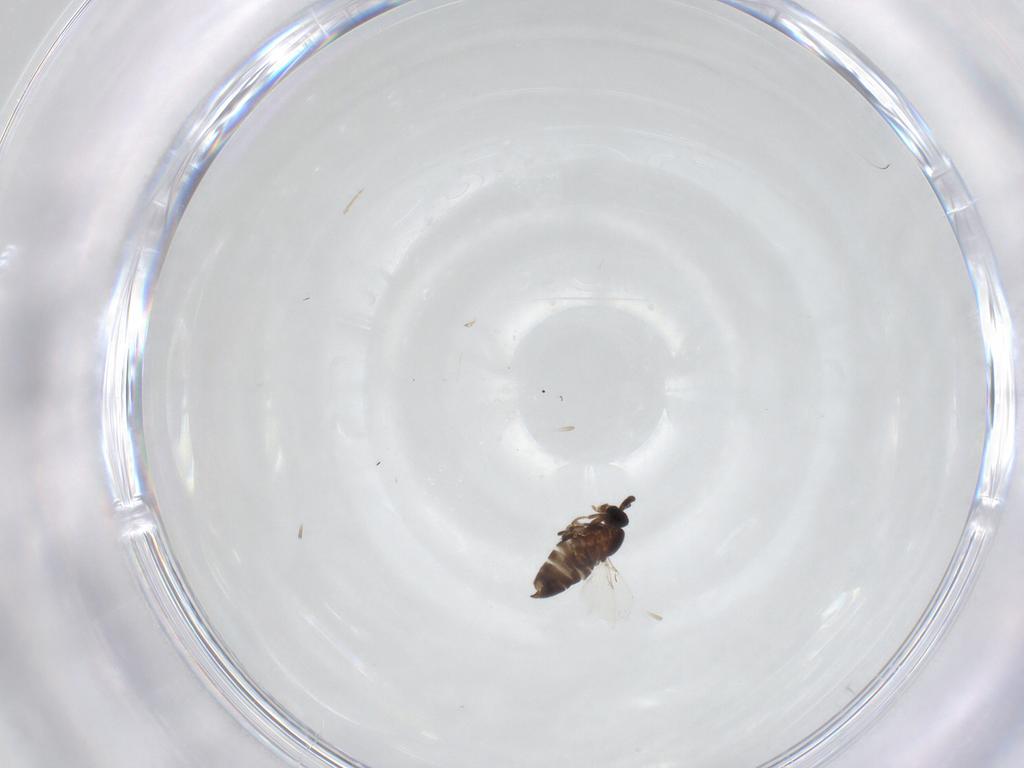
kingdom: Animalia
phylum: Arthropoda
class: Insecta
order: Diptera
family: Scatopsidae
